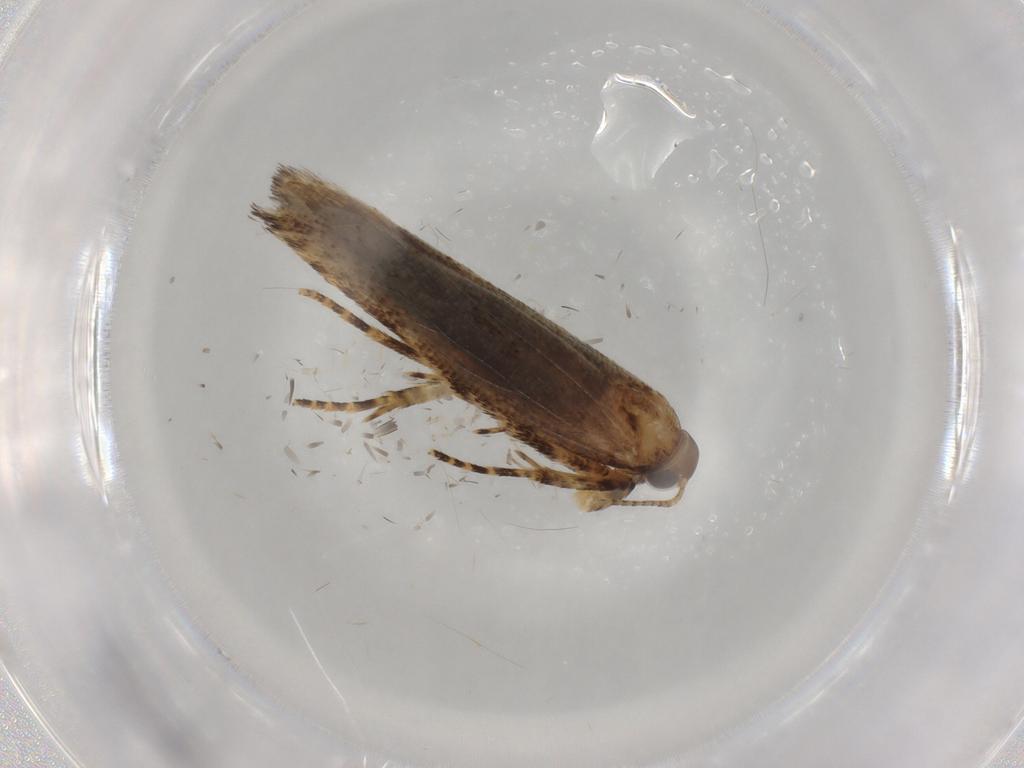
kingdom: Animalia
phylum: Arthropoda
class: Insecta
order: Lepidoptera
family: Gelechiidae
